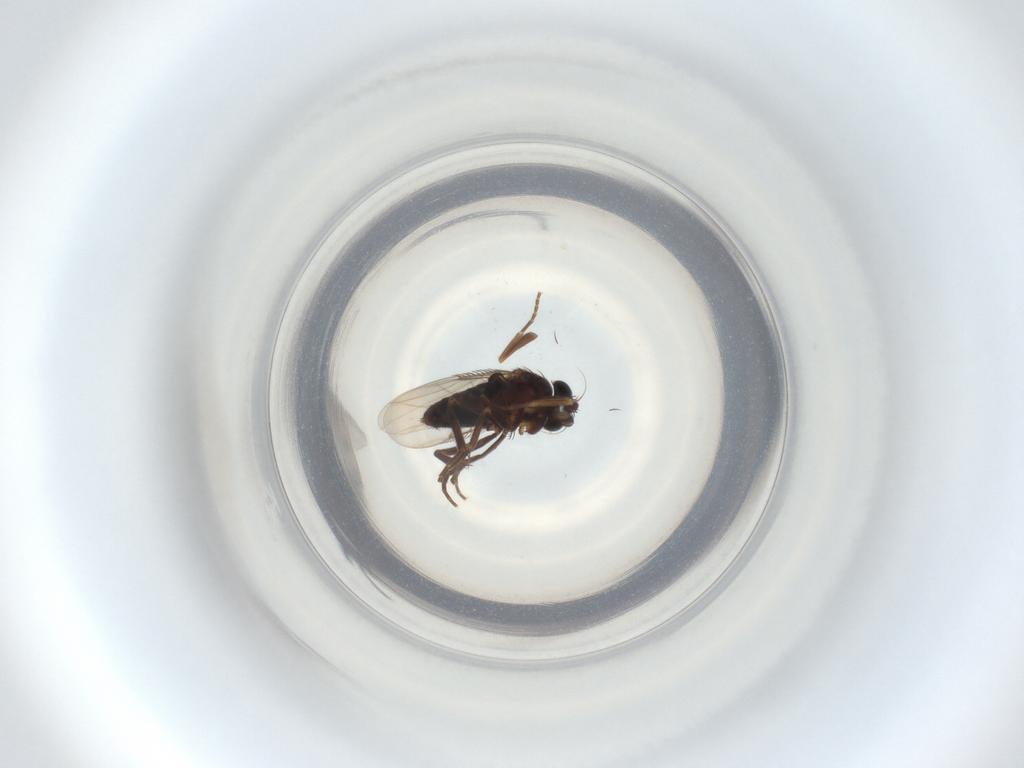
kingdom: Animalia
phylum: Arthropoda
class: Insecta
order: Diptera
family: Phoridae
